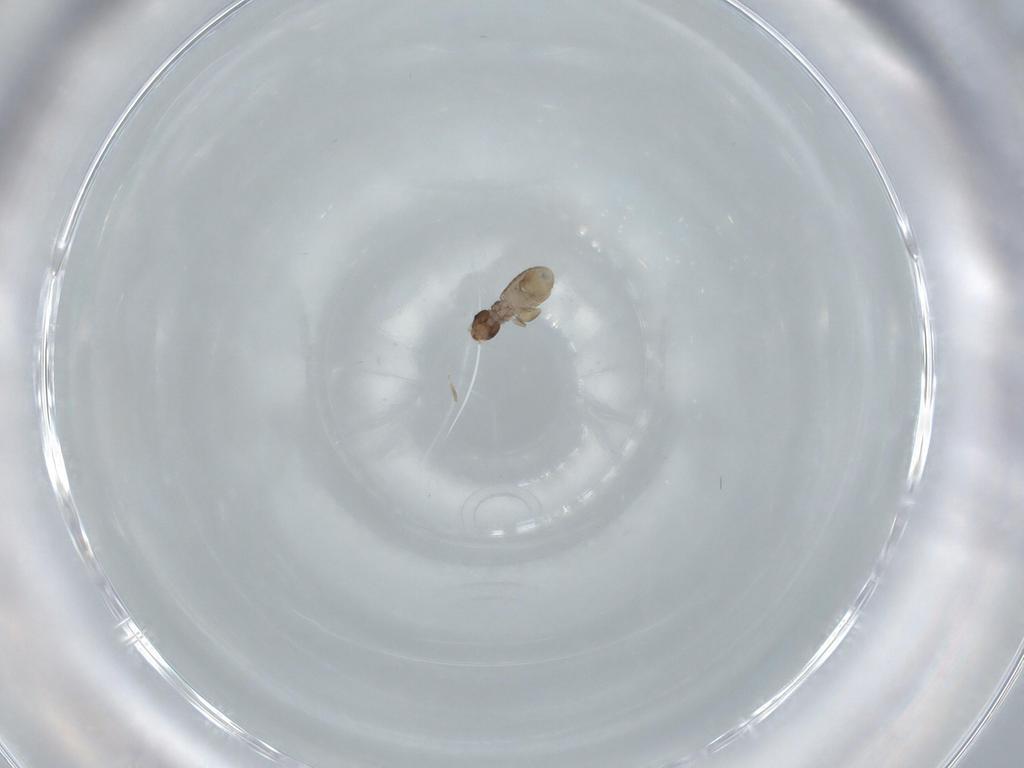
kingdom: Animalia
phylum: Arthropoda
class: Insecta
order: Psocodea
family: Liposcelididae
